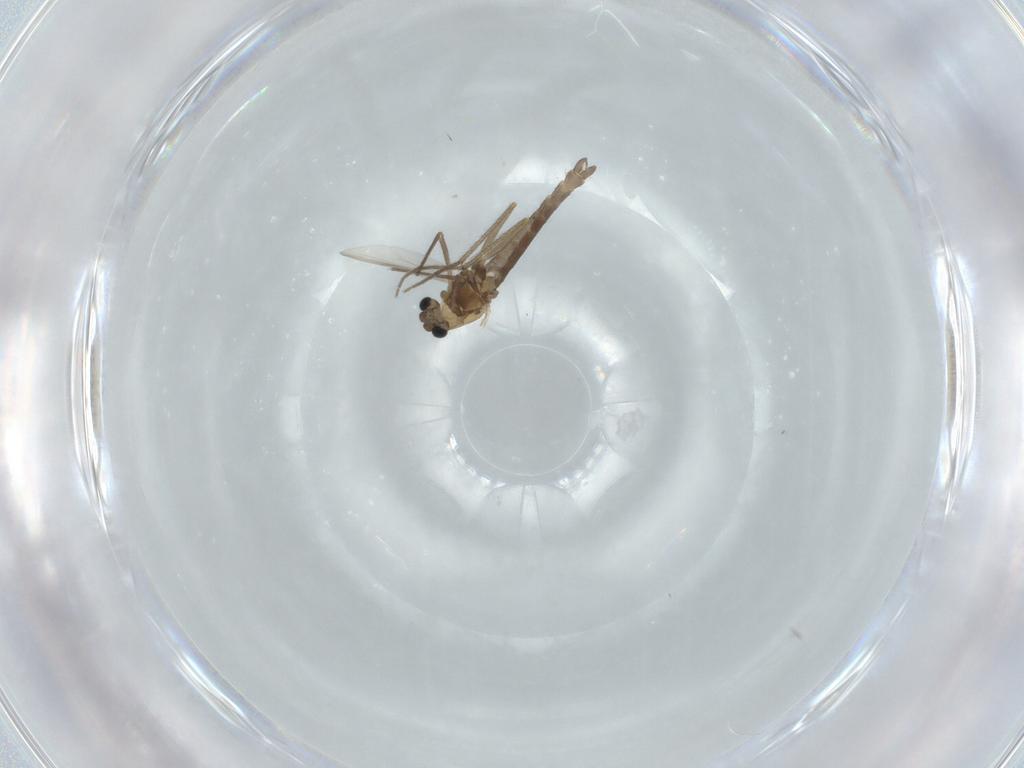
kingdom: Animalia
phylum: Arthropoda
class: Insecta
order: Diptera
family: Chironomidae
